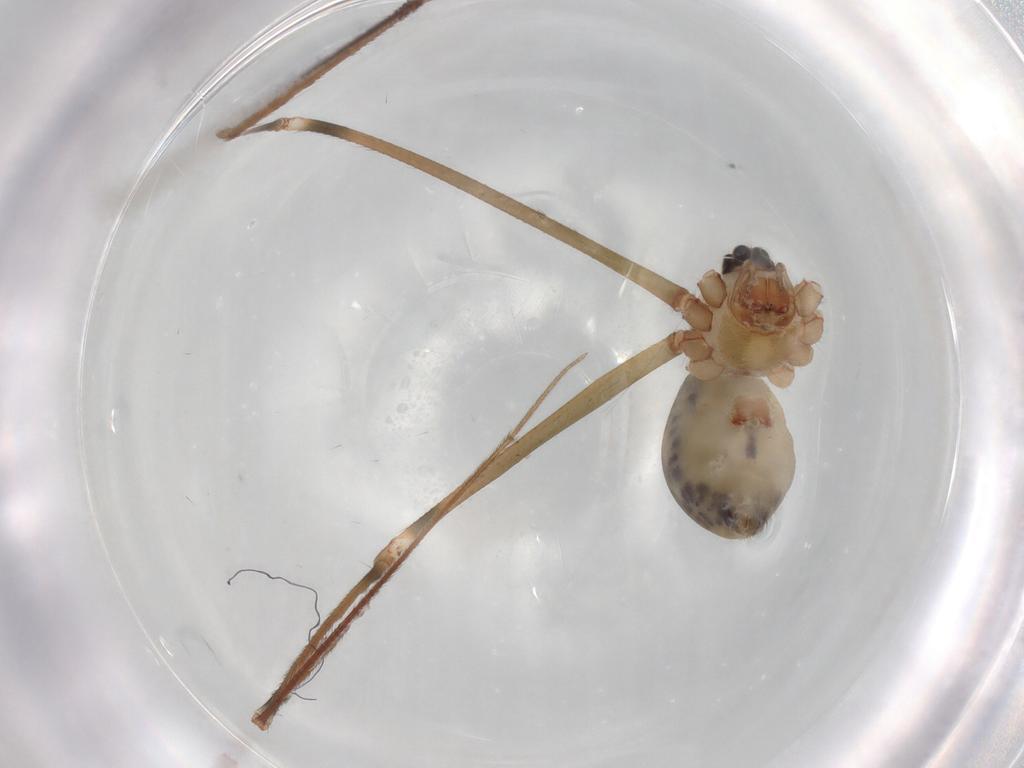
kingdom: Animalia
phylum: Arthropoda
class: Arachnida
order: Araneae
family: Pholcidae
